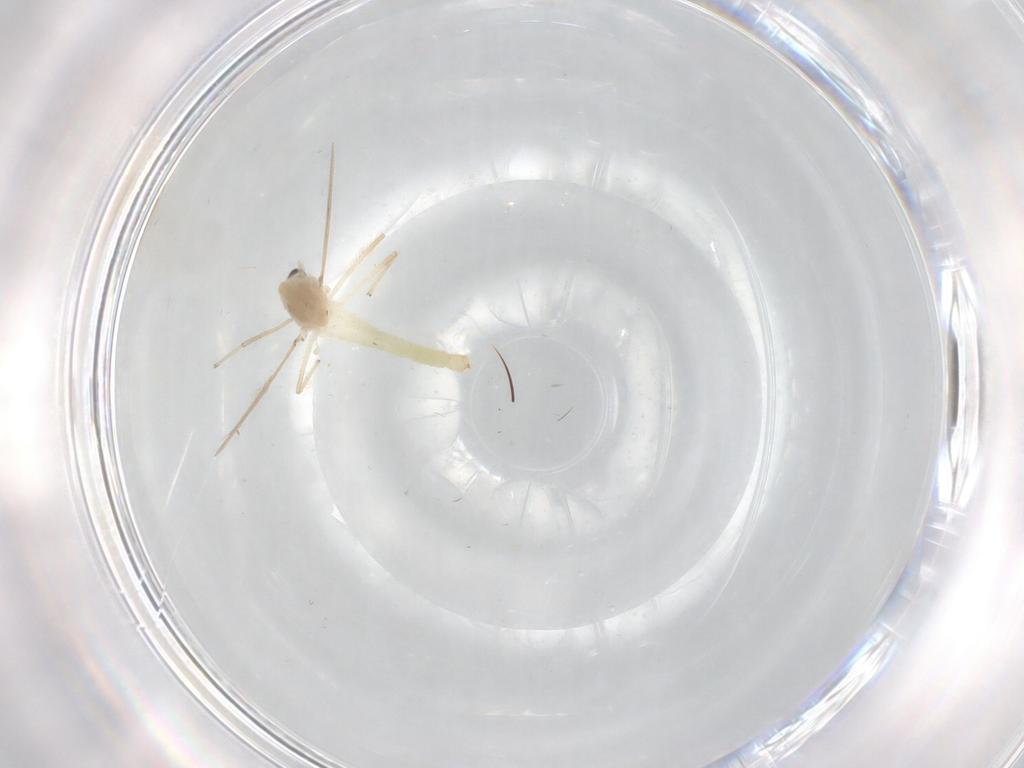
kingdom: Animalia
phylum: Arthropoda
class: Insecta
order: Diptera
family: Chironomidae
